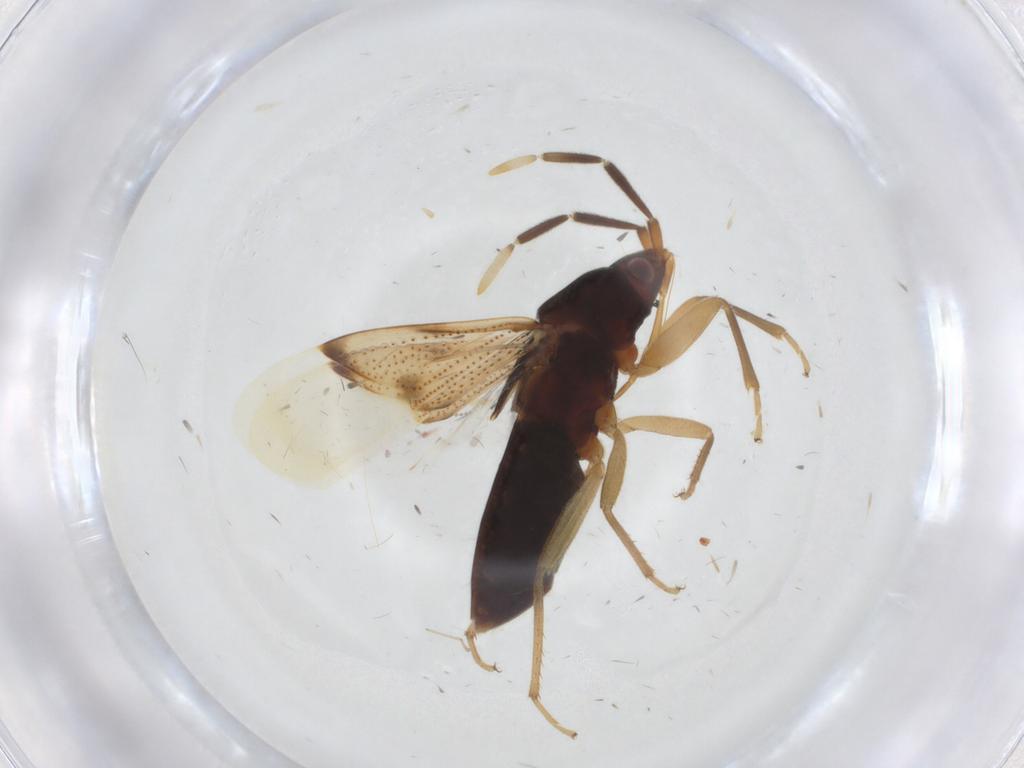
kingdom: Animalia
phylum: Arthropoda
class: Insecta
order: Hemiptera
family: Rhyparochromidae
